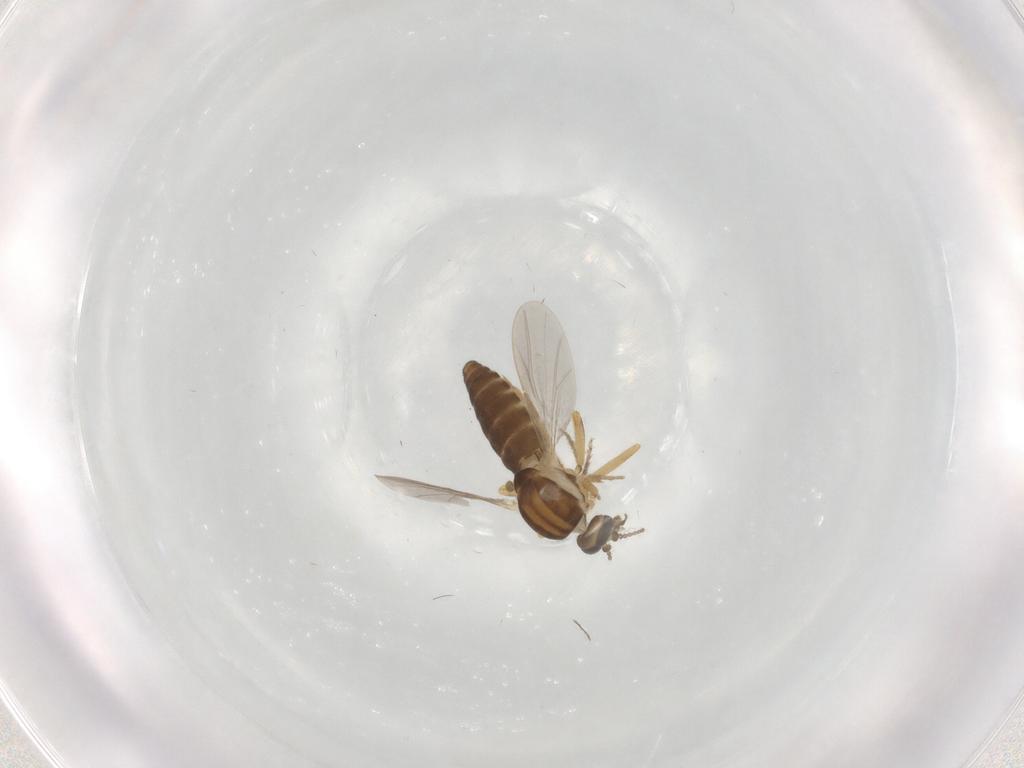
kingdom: Animalia
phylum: Arthropoda
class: Insecta
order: Diptera
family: Ceratopogonidae
